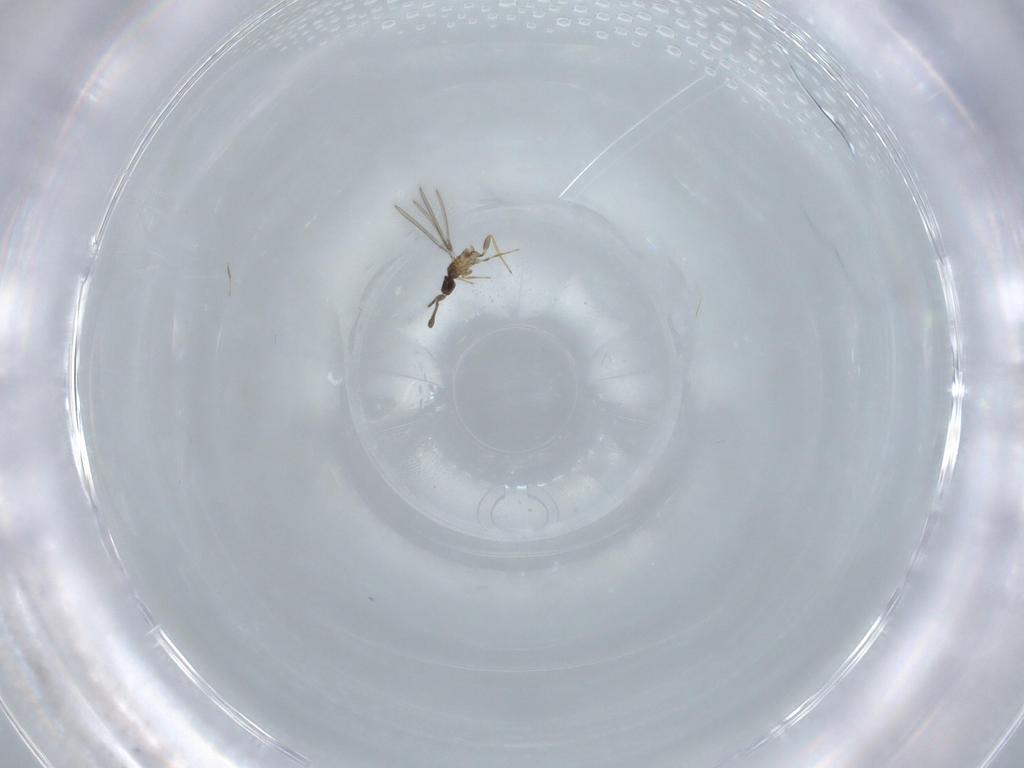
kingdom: Animalia
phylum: Arthropoda
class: Insecta
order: Hymenoptera
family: Mymaridae
